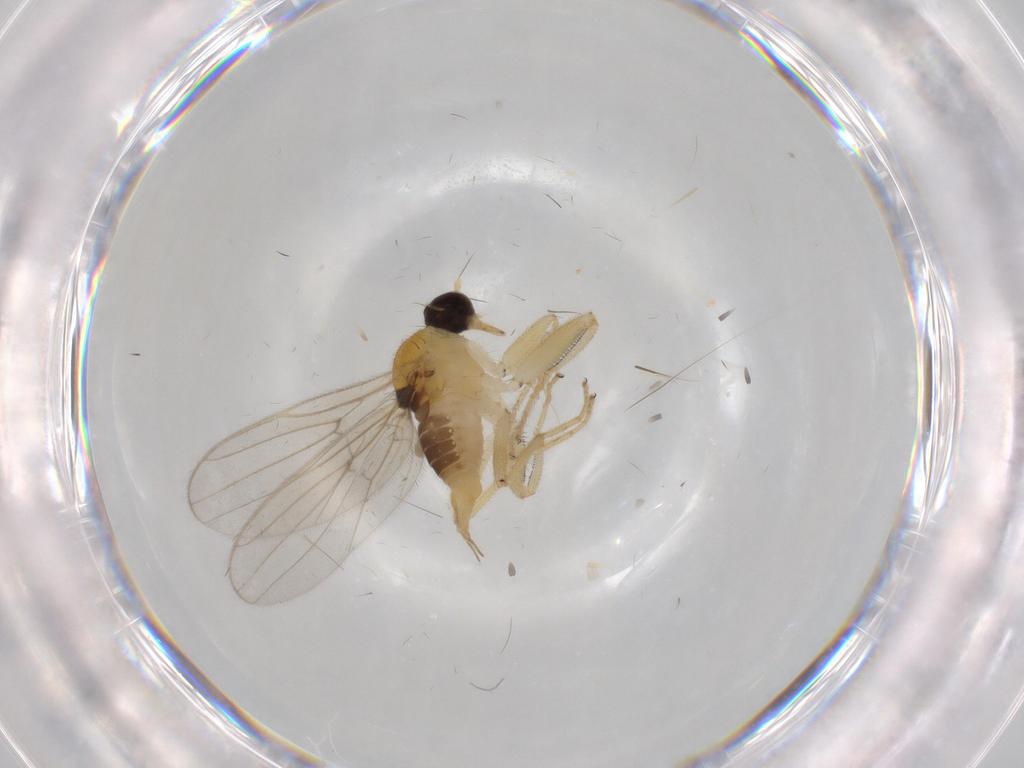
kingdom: Animalia
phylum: Arthropoda
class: Insecta
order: Diptera
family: Hybotidae
